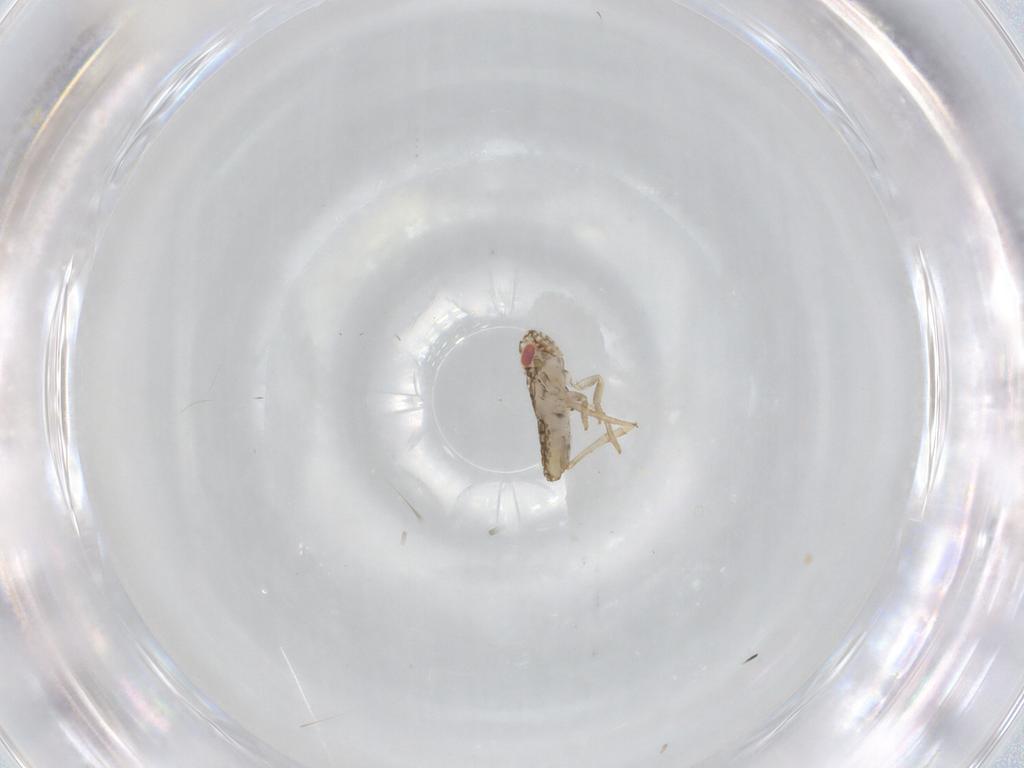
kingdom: Animalia
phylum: Arthropoda
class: Insecta
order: Hemiptera
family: Delphacidae
